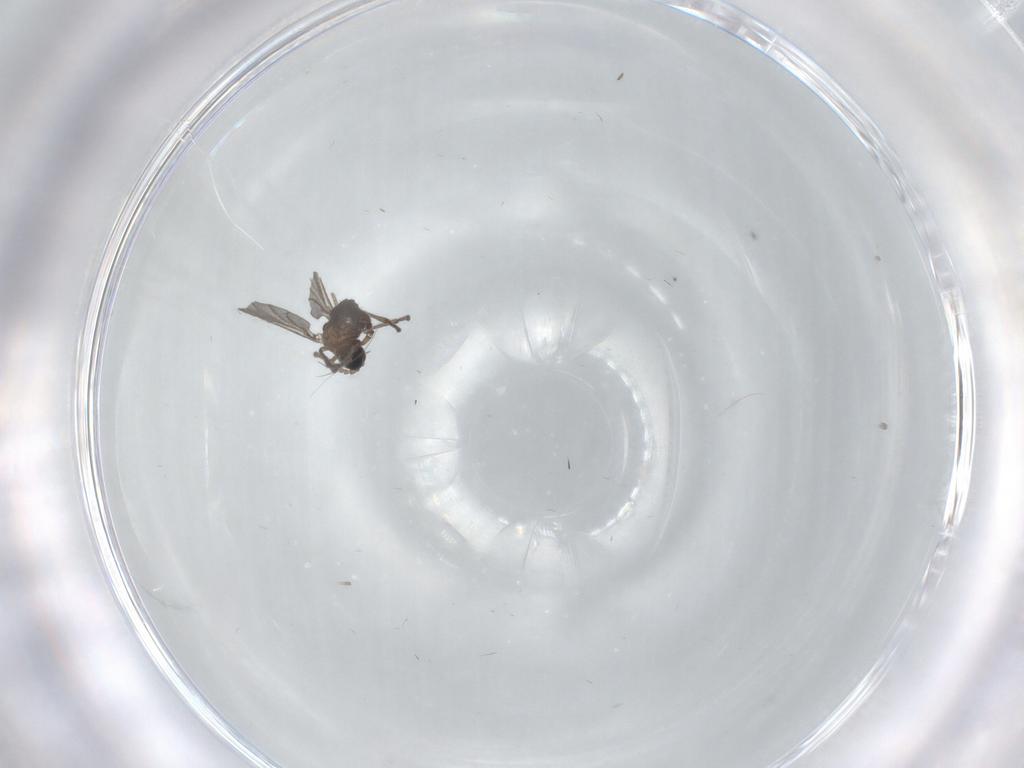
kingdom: Animalia
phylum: Arthropoda
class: Insecta
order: Diptera
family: Sciaridae
